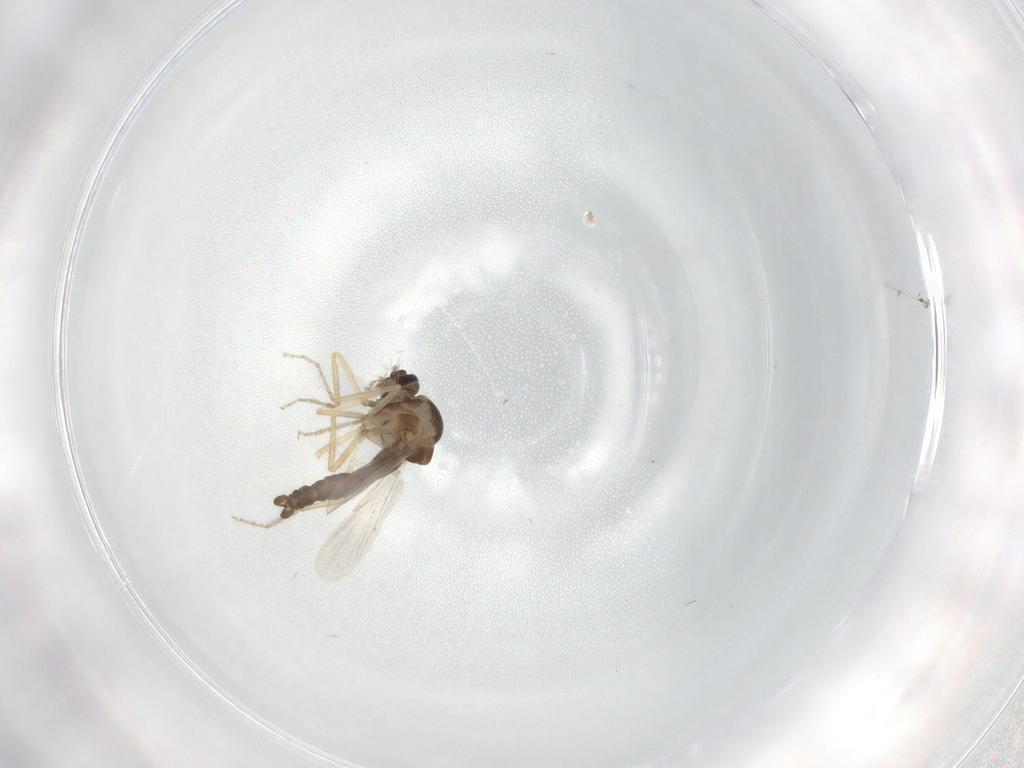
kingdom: Animalia
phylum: Arthropoda
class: Insecta
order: Diptera
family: Ceratopogonidae
